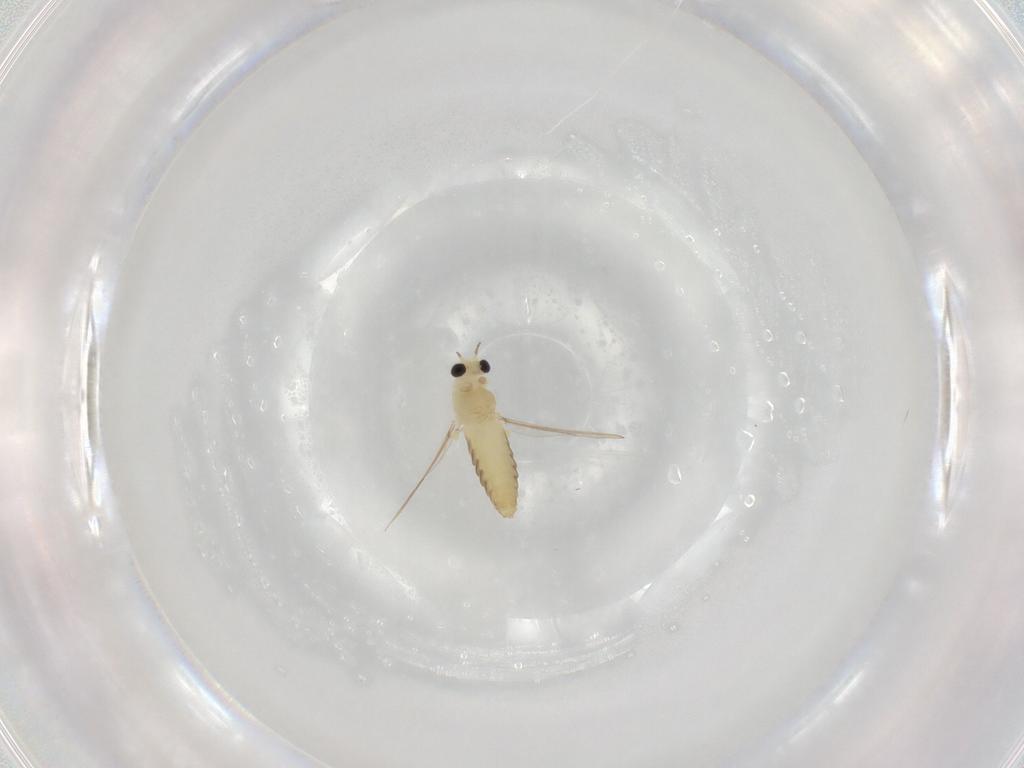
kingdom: Animalia
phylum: Arthropoda
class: Insecta
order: Diptera
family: Chironomidae
